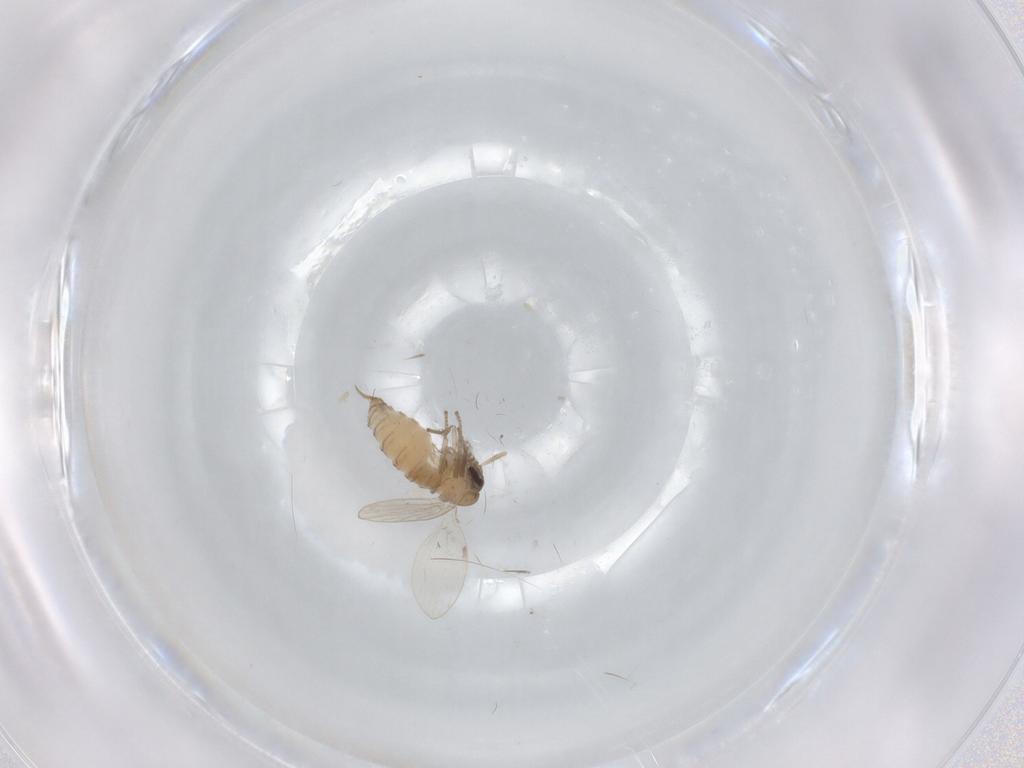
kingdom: Animalia
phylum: Arthropoda
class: Insecta
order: Diptera
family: Psychodidae
